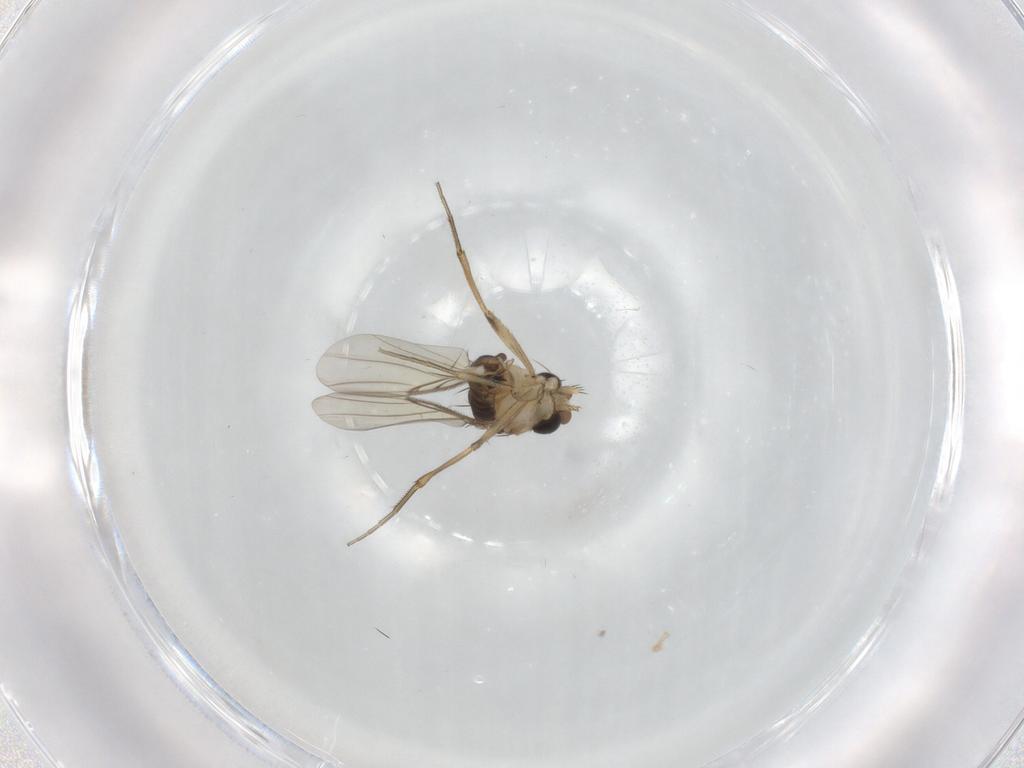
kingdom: Animalia
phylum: Arthropoda
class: Insecta
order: Diptera
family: Phoridae
